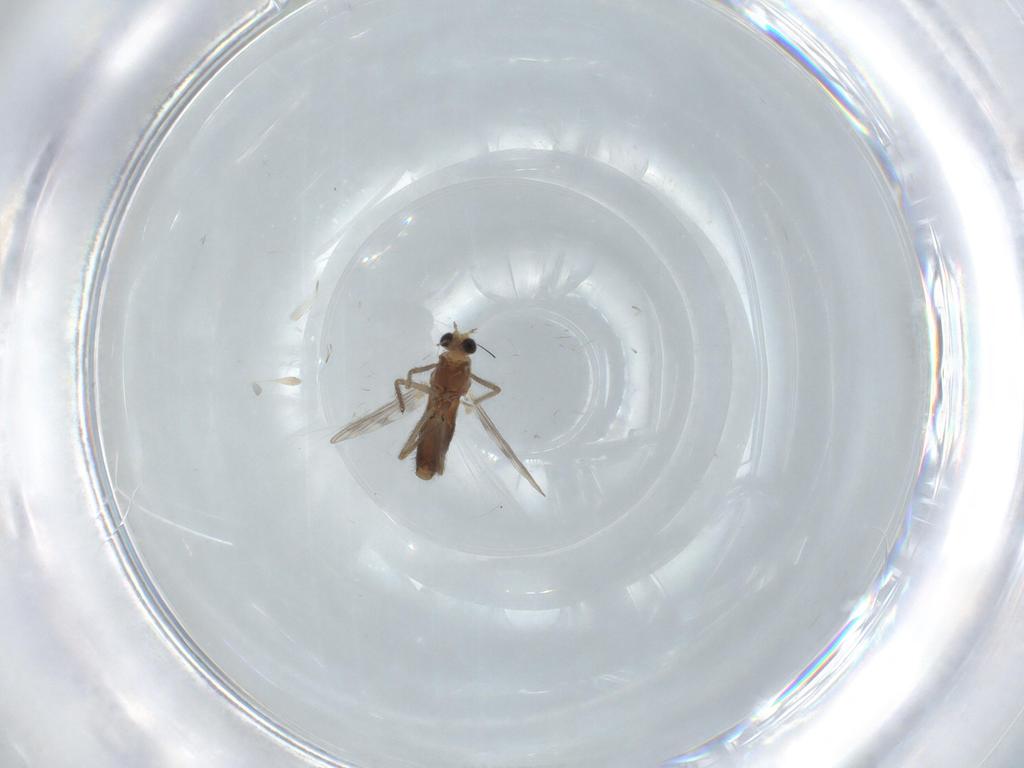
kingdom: Animalia
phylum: Arthropoda
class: Insecta
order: Diptera
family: Chironomidae
